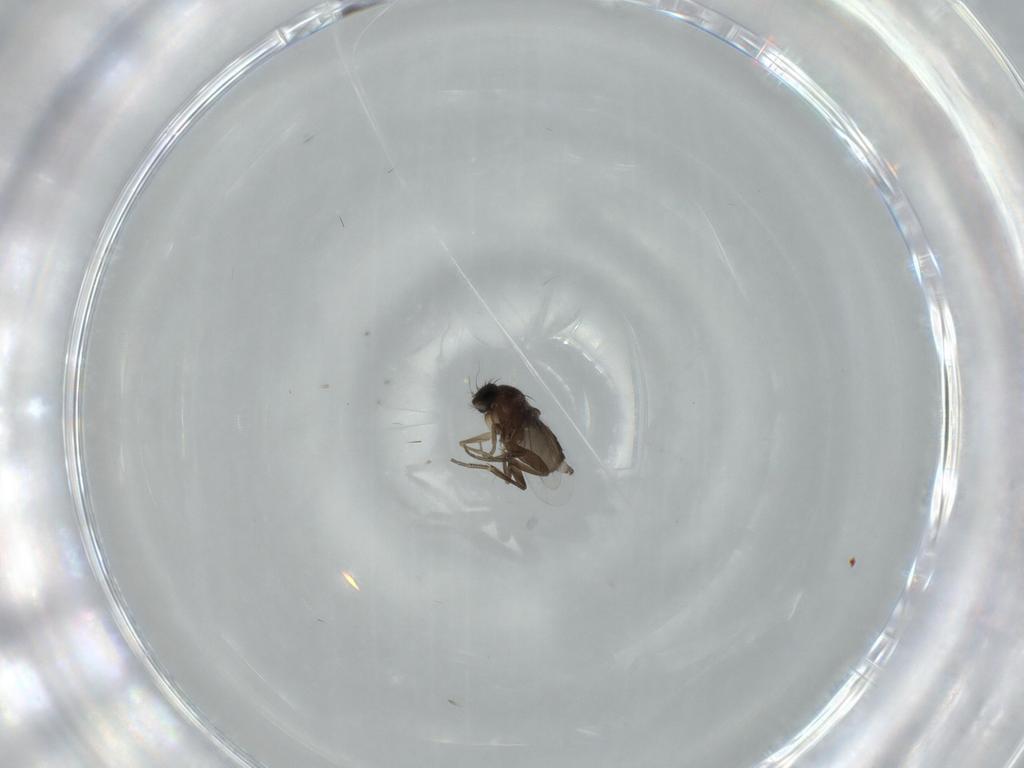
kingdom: Animalia
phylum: Arthropoda
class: Insecta
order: Diptera
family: Phoridae
